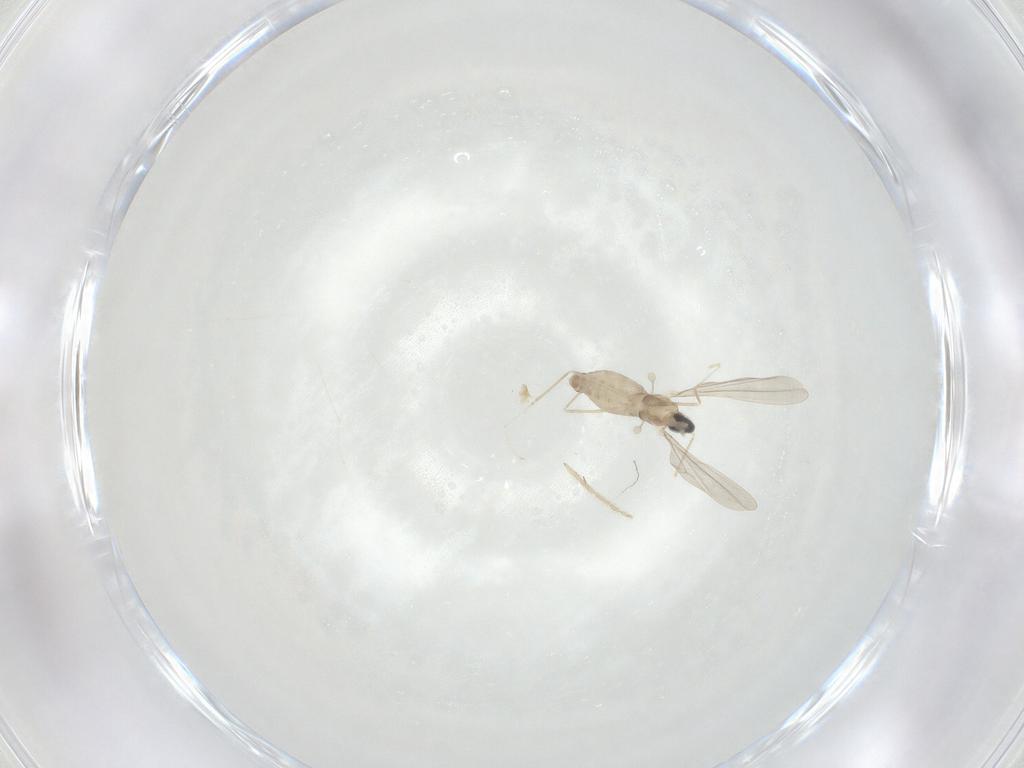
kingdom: Animalia
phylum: Arthropoda
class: Insecta
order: Diptera
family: Cecidomyiidae
